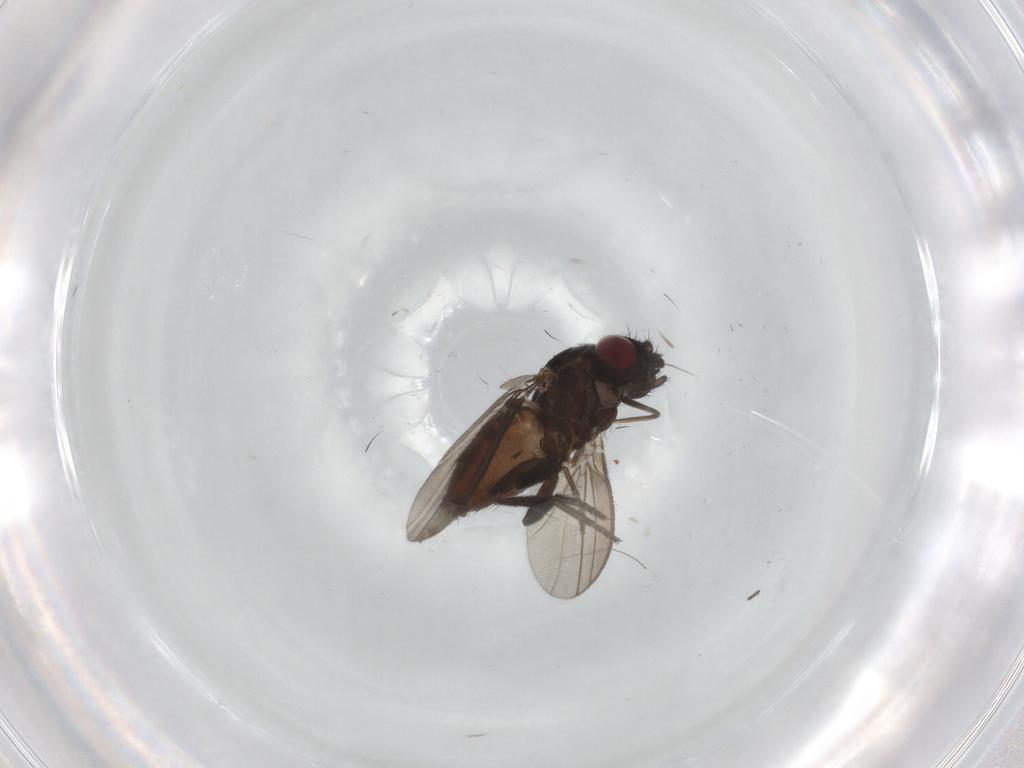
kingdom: Animalia
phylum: Arthropoda
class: Insecta
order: Diptera
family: Milichiidae
